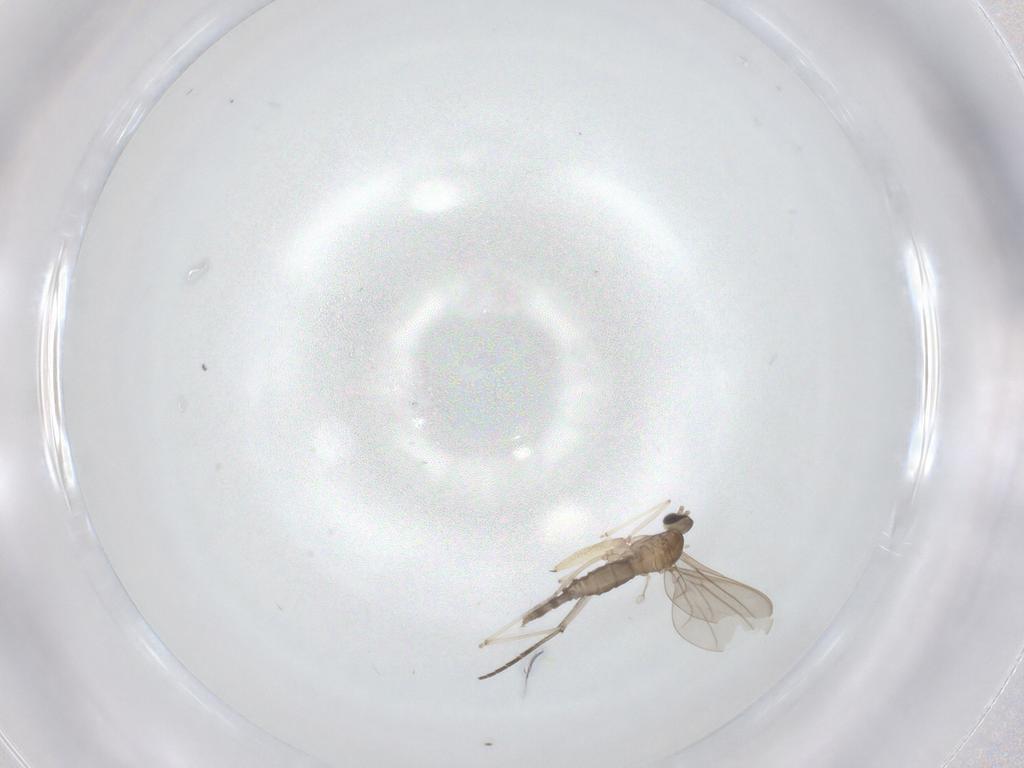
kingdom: Animalia
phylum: Arthropoda
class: Insecta
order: Diptera
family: Cecidomyiidae
